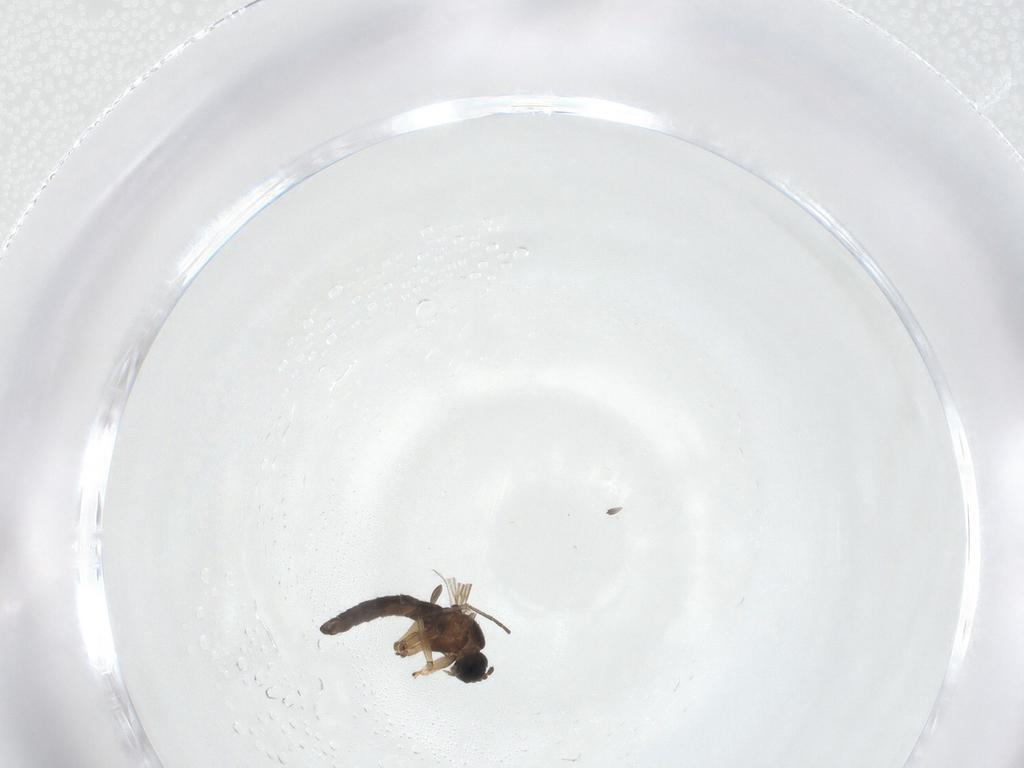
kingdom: Animalia
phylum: Arthropoda
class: Insecta
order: Diptera
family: Sciaridae
